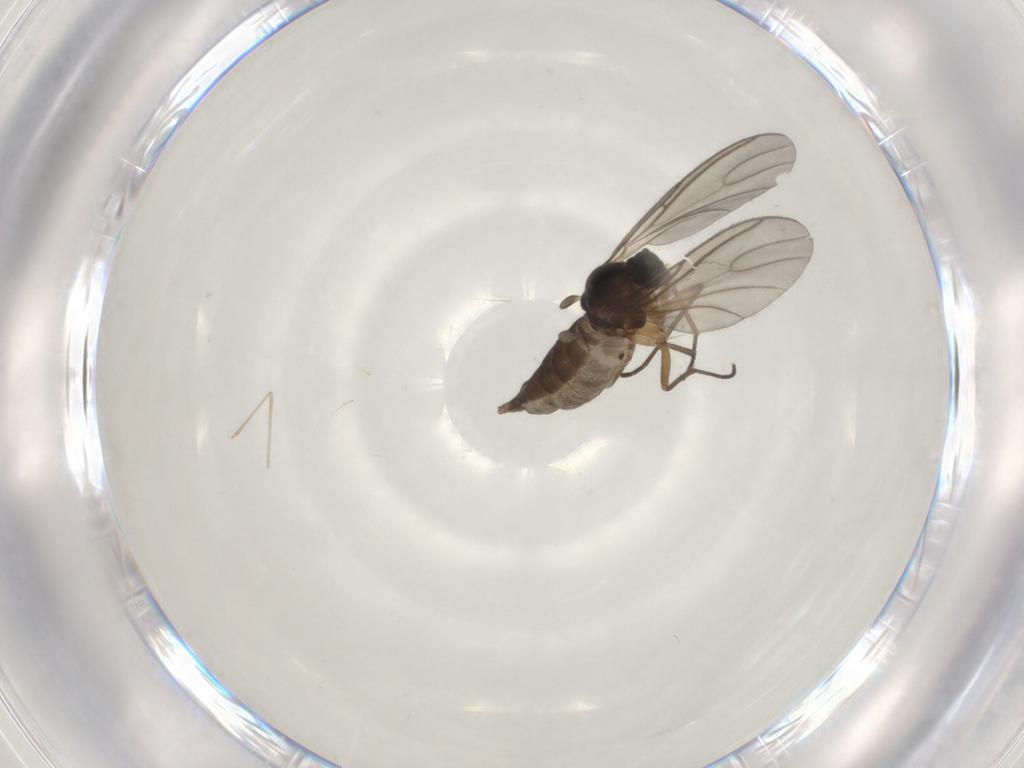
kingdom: Animalia
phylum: Arthropoda
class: Insecta
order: Diptera
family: Sciaridae
